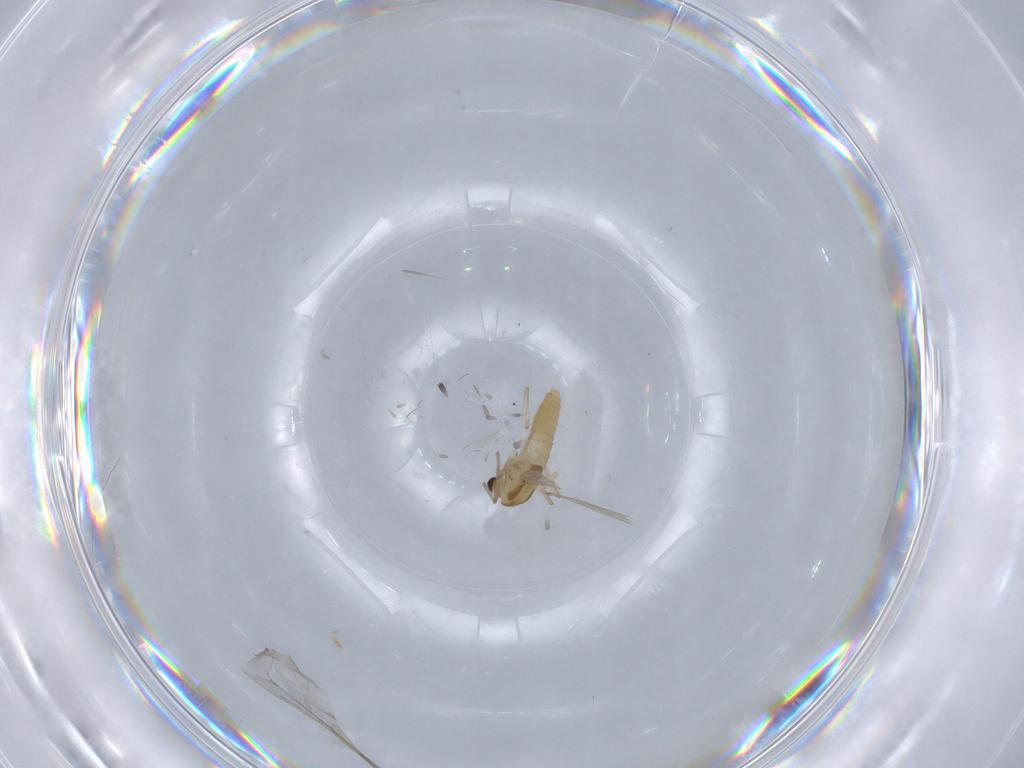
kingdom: Animalia
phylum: Arthropoda
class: Insecta
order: Diptera
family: Cecidomyiidae
